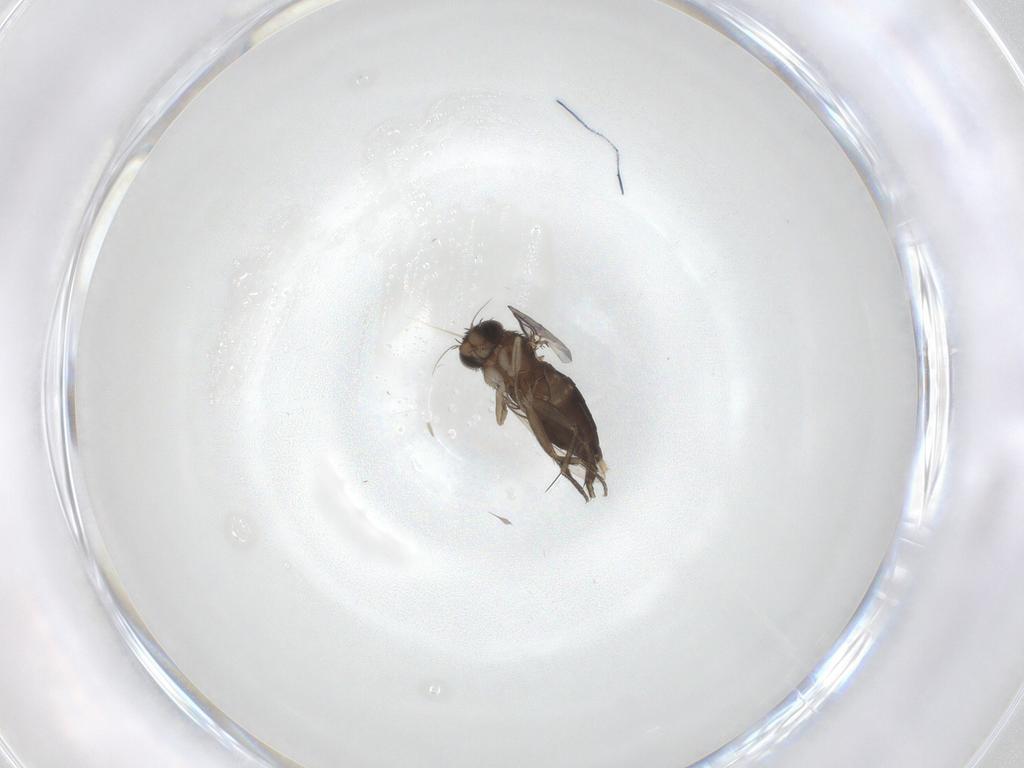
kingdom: Animalia
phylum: Arthropoda
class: Insecta
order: Diptera
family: Phoridae
